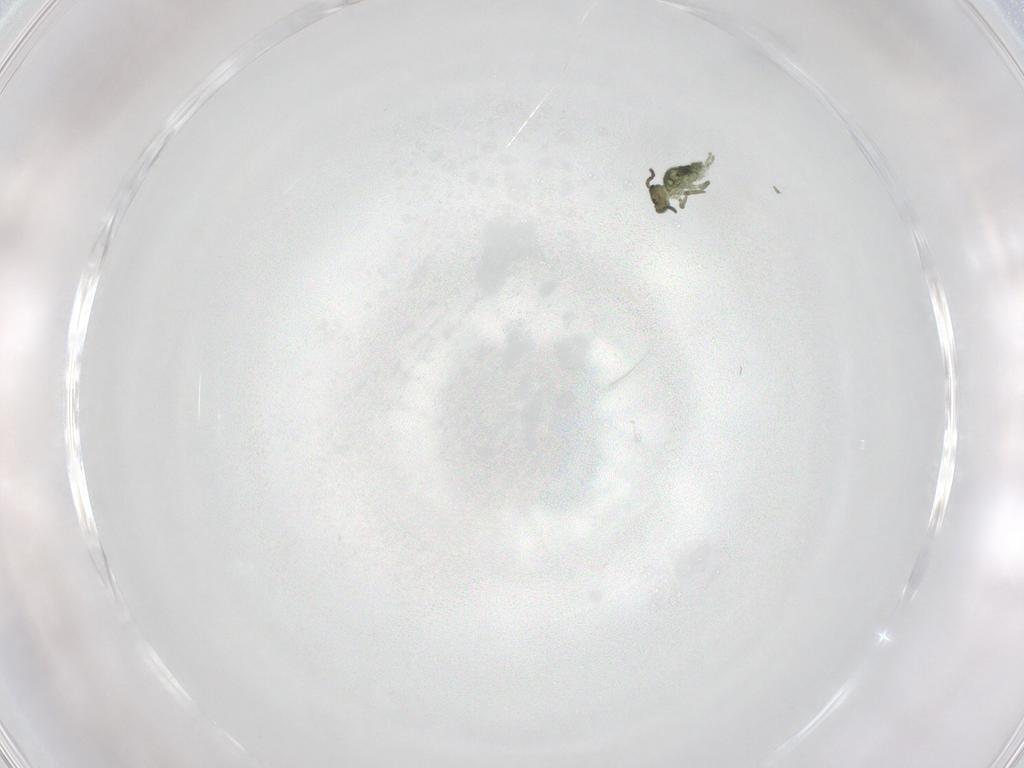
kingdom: Animalia
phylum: Arthropoda
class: Collembola
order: Symphypleona
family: Sminthuridae
